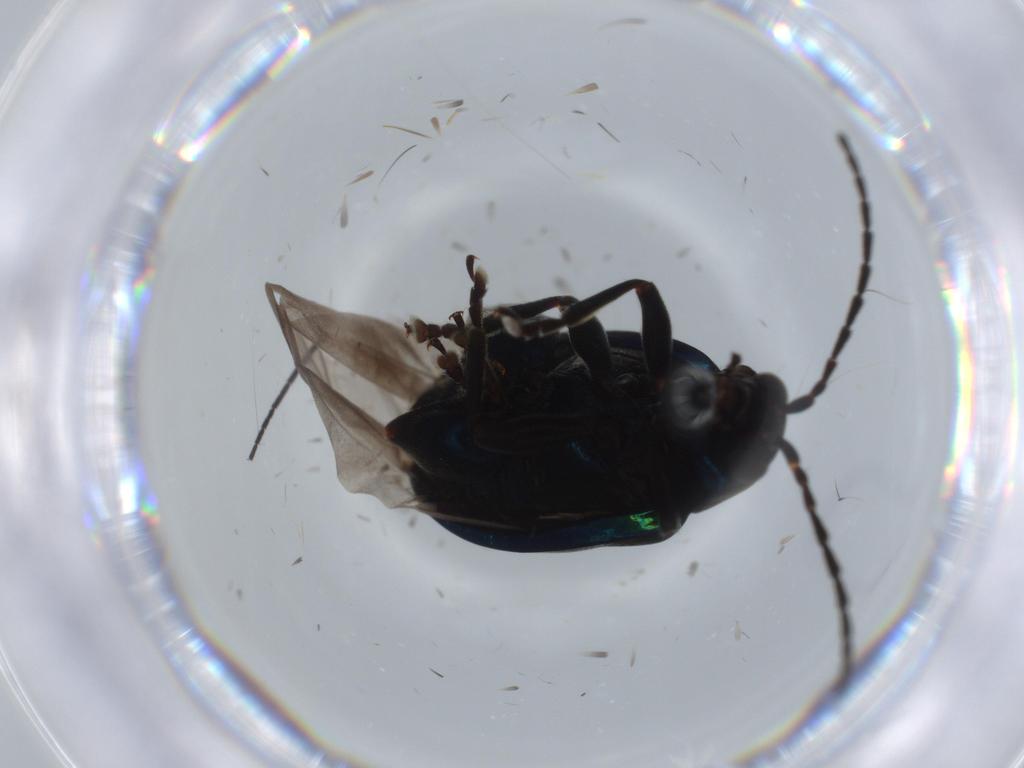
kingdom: Animalia
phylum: Arthropoda
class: Insecta
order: Coleoptera
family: Chrysomelidae
